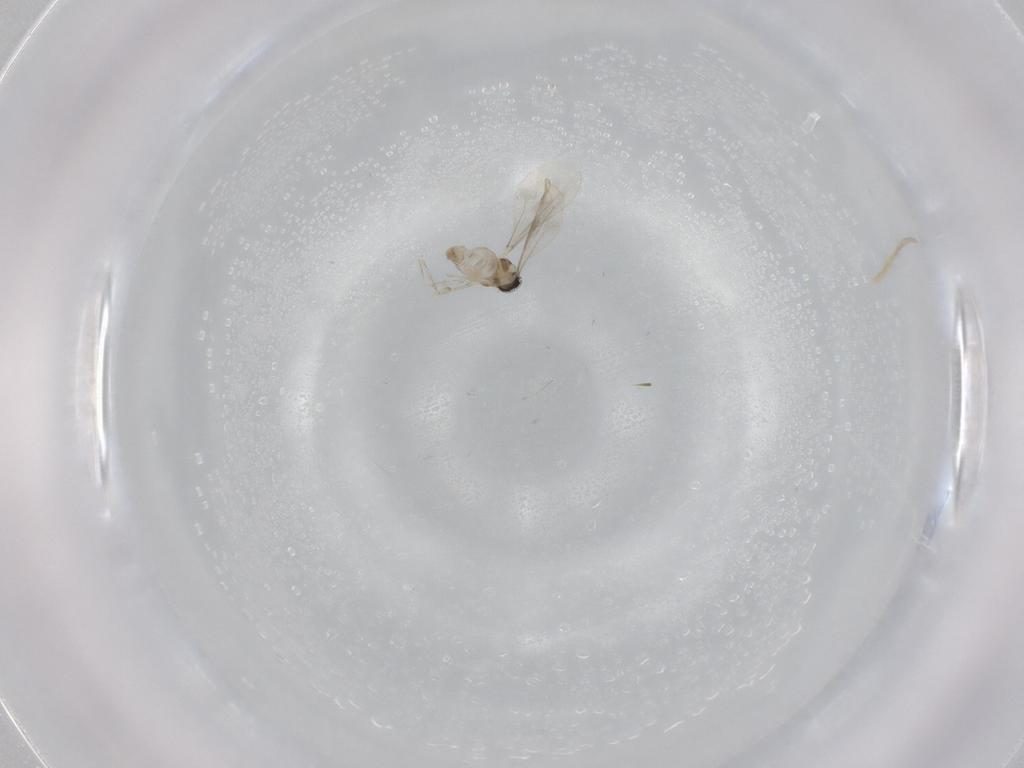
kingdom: Animalia
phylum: Arthropoda
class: Insecta
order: Diptera
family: Cecidomyiidae
